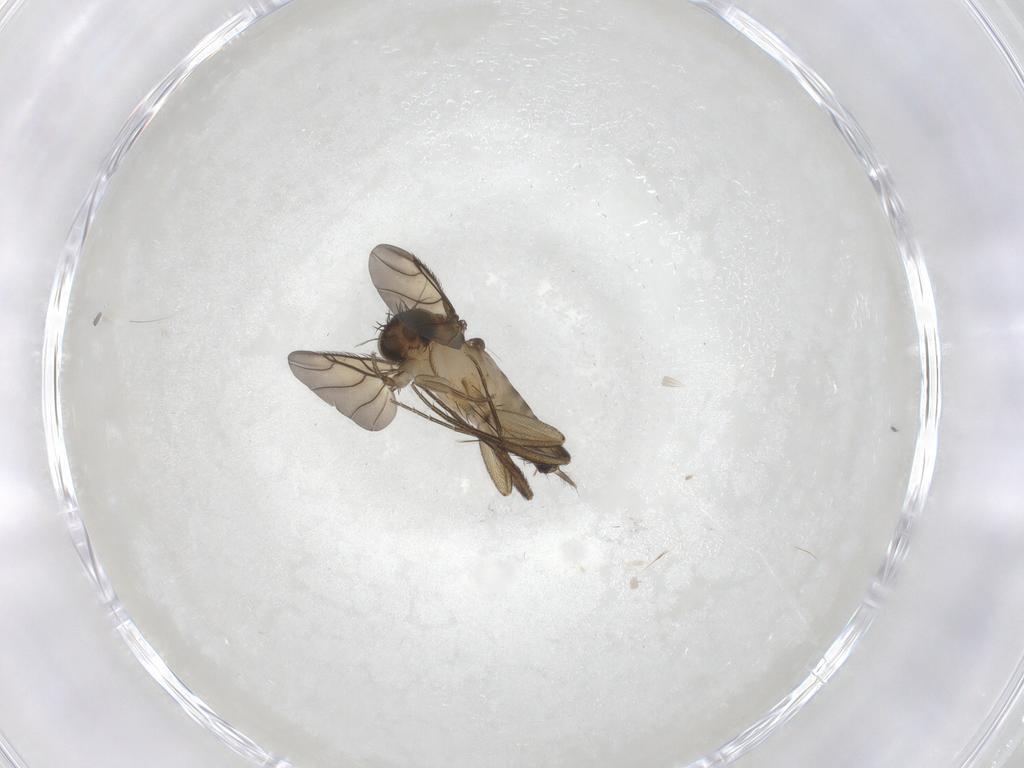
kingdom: Animalia
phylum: Arthropoda
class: Insecta
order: Diptera
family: Phoridae
